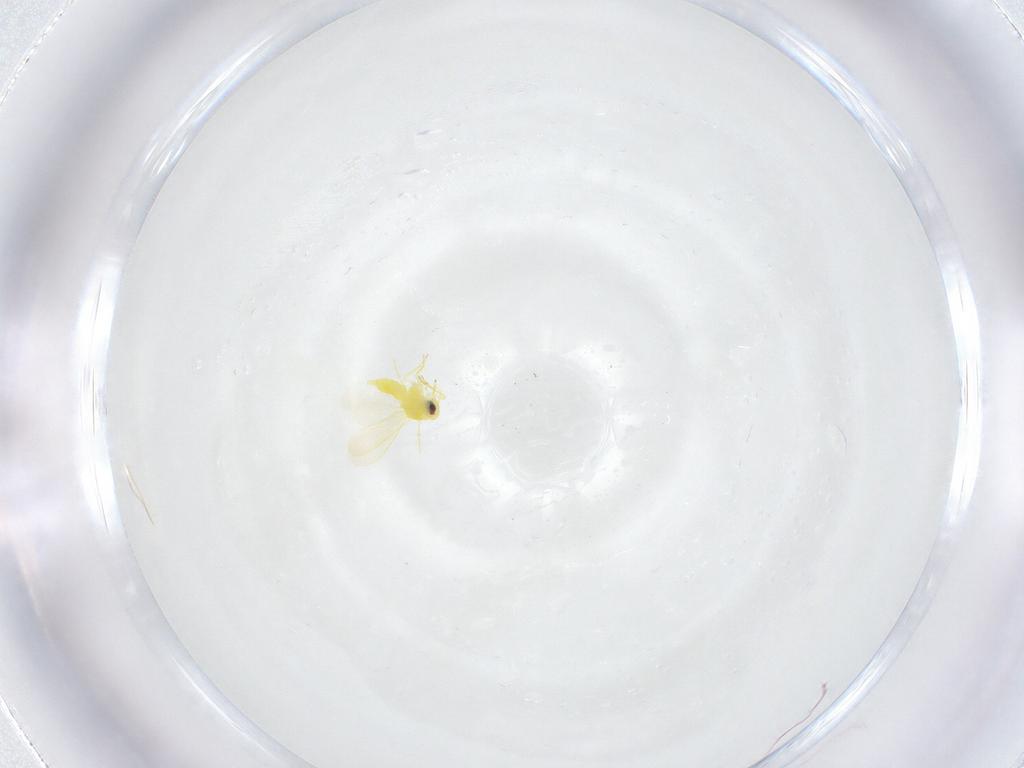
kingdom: Animalia
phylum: Arthropoda
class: Insecta
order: Hemiptera
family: Aleyrodidae
